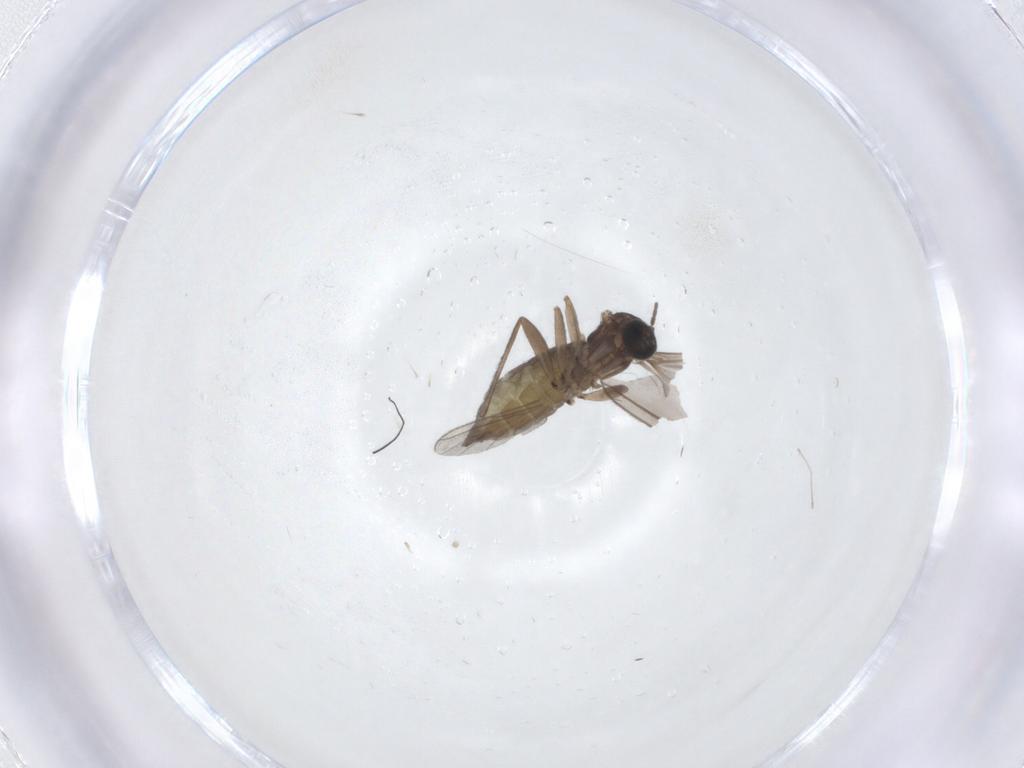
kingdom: Animalia
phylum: Arthropoda
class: Insecta
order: Diptera
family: Sciaridae
